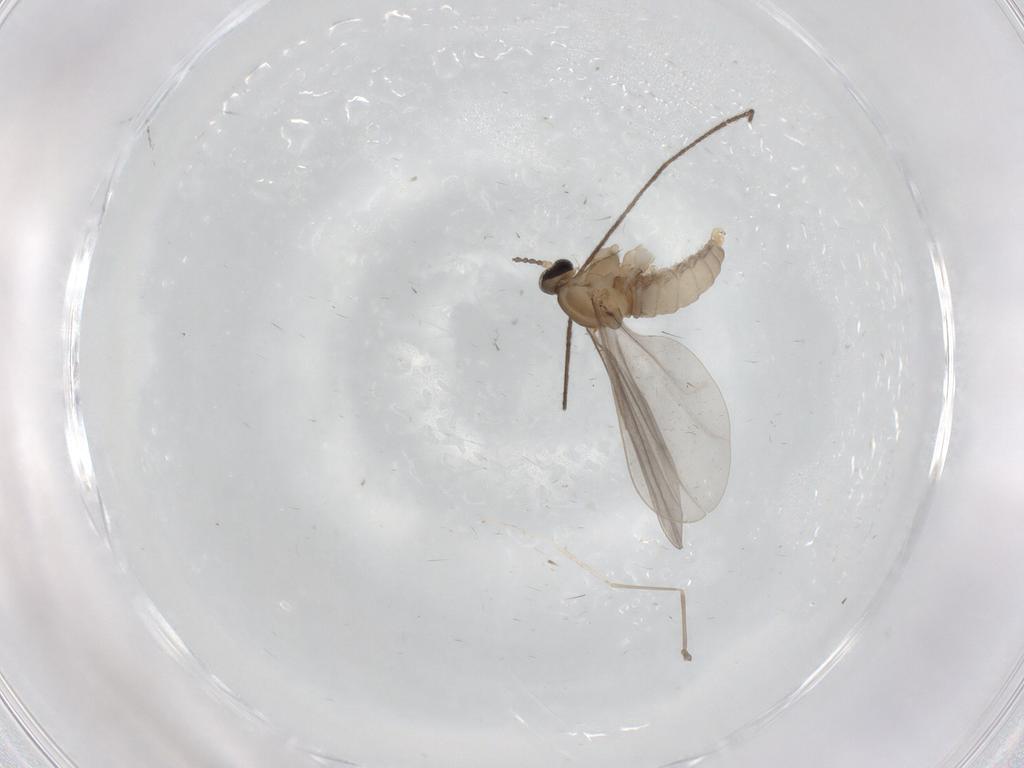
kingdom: Animalia
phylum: Arthropoda
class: Insecta
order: Diptera
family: Cecidomyiidae
